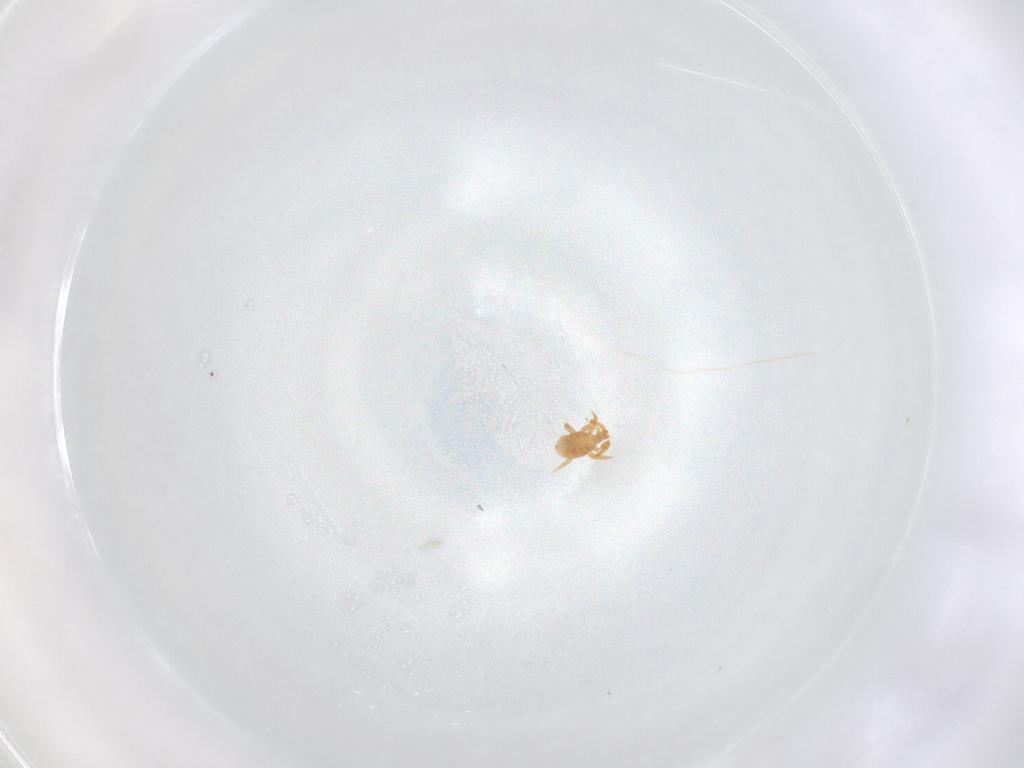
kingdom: Animalia
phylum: Arthropoda
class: Arachnida
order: Mesostigmata
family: Parasitidae
